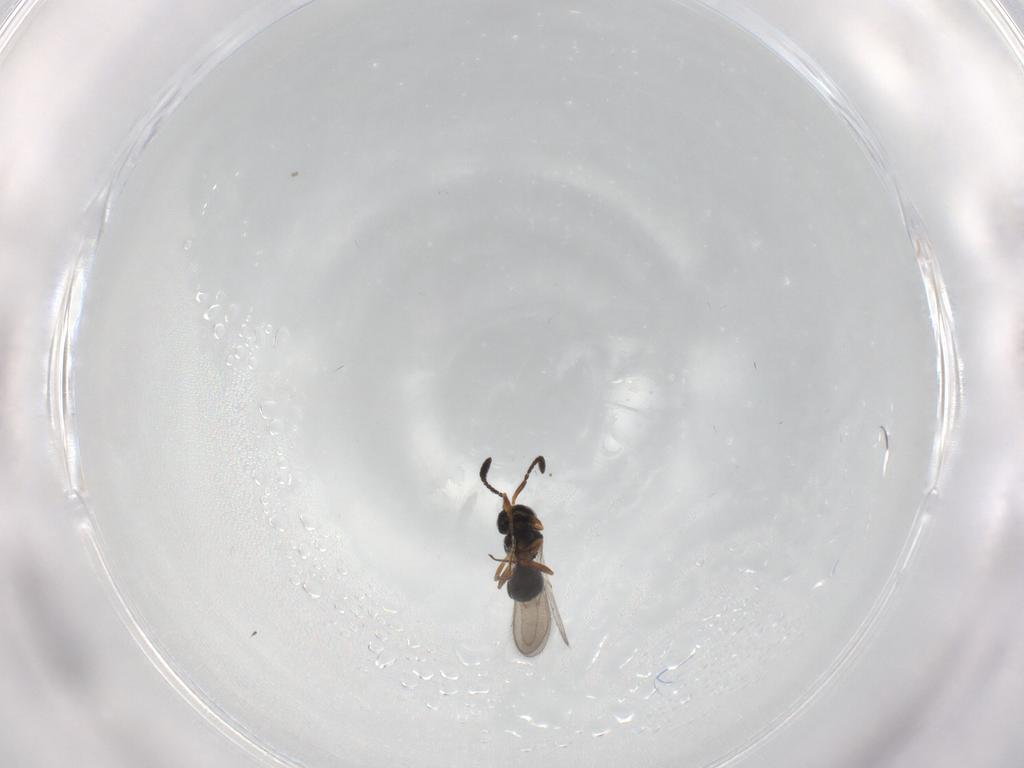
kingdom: Animalia
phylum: Arthropoda
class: Insecta
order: Hymenoptera
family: Scelionidae
